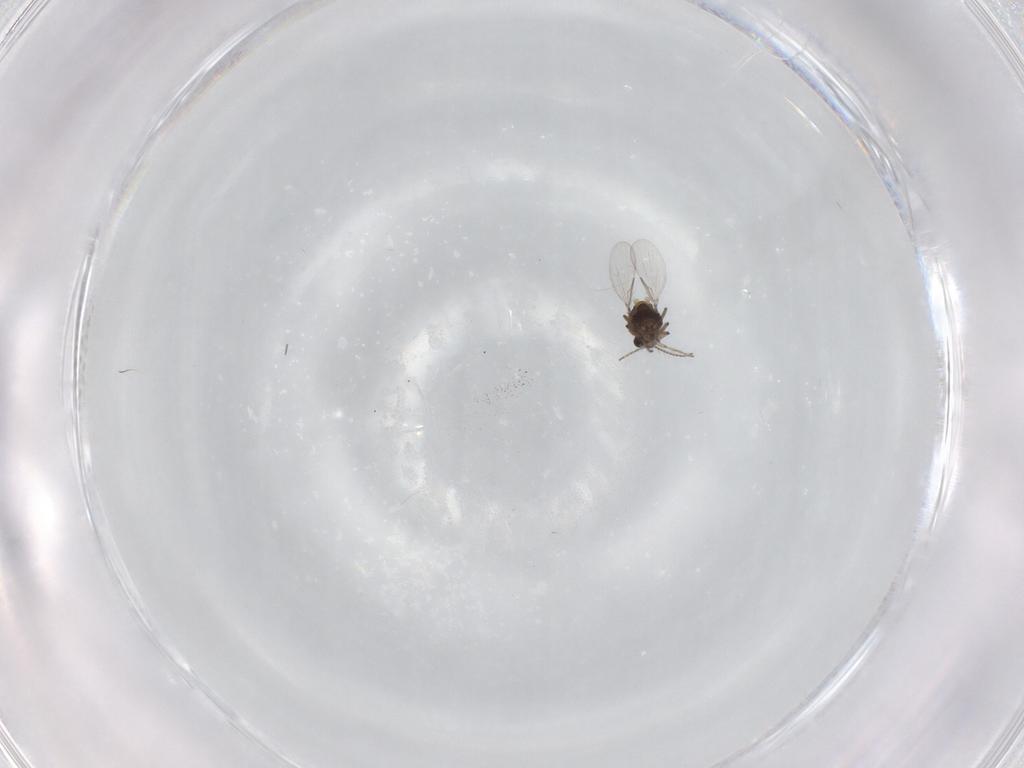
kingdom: Animalia
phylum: Arthropoda
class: Insecta
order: Diptera
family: Ceratopogonidae
